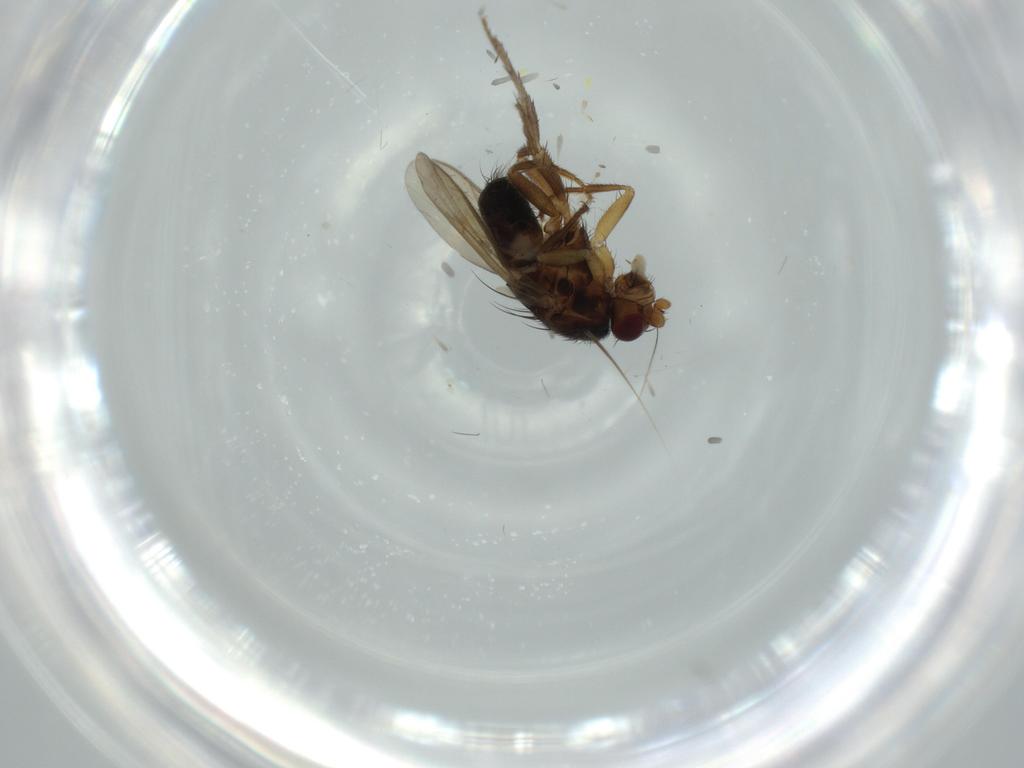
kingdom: Animalia
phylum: Arthropoda
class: Insecta
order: Diptera
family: Sphaeroceridae
